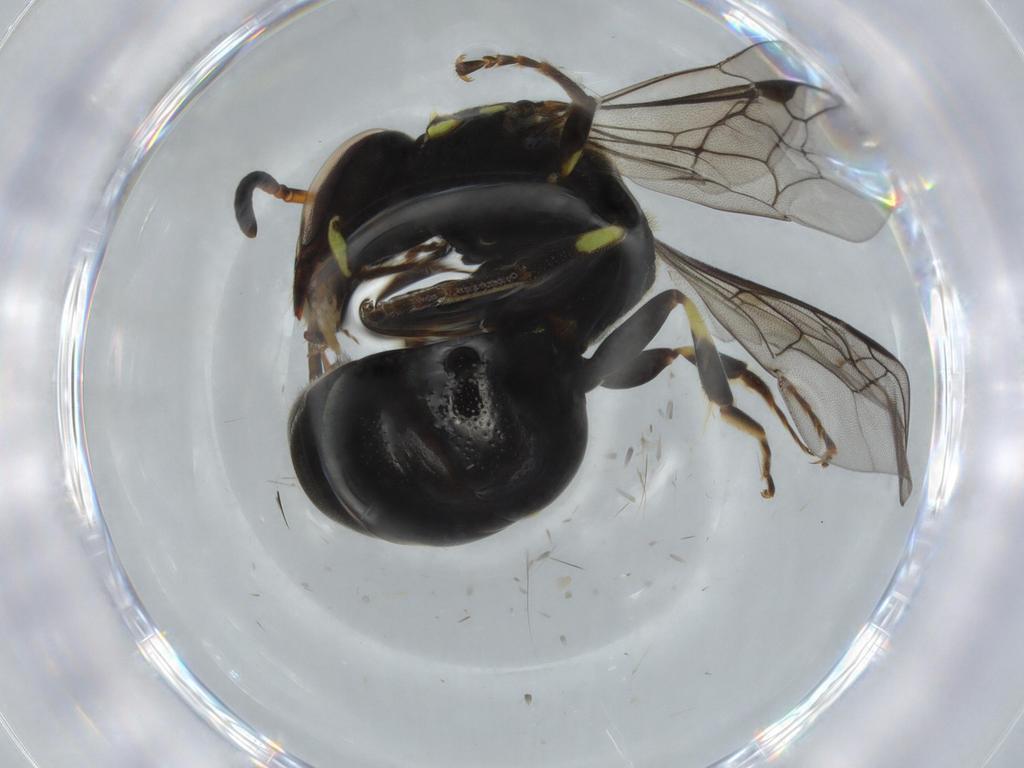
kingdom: Animalia
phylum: Arthropoda
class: Insecta
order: Hymenoptera
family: Colletidae
